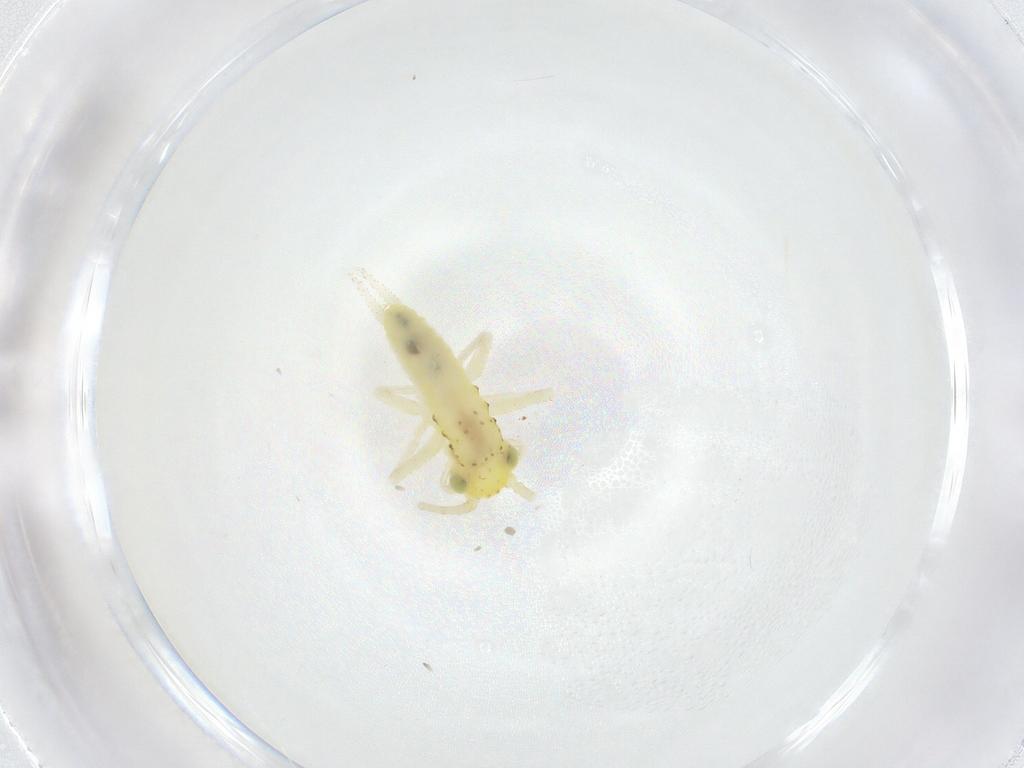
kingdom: Animalia
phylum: Arthropoda
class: Insecta
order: Orthoptera
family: Trigonidiidae
